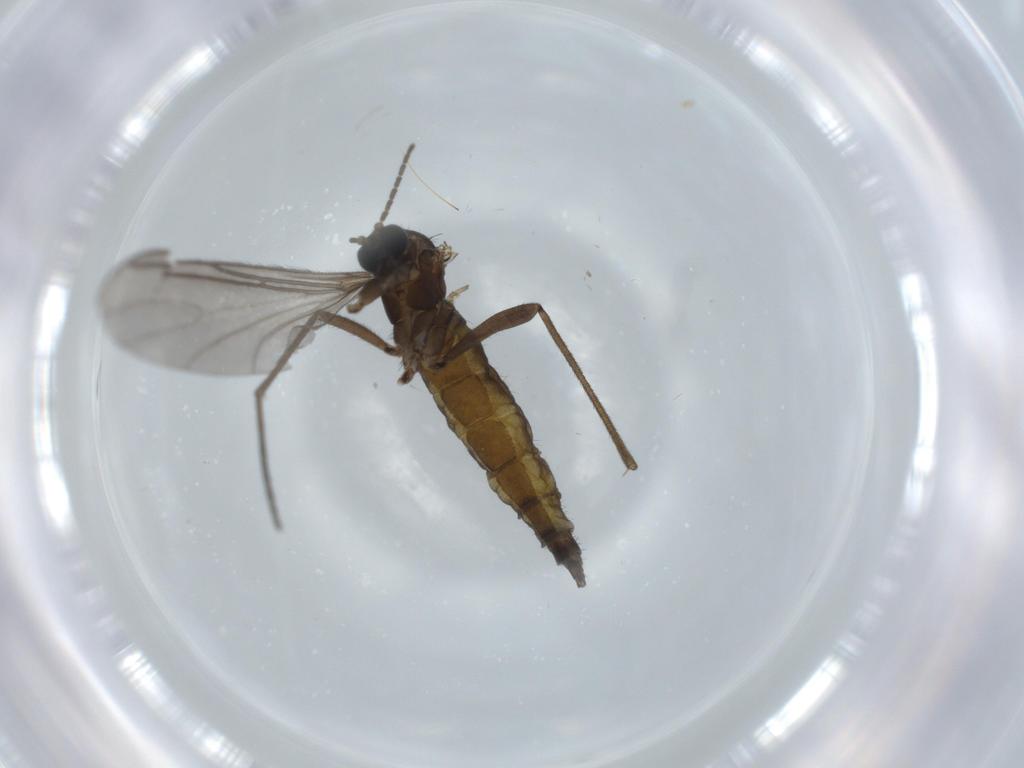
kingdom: Animalia
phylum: Arthropoda
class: Insecta
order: Diptera
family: Sciaridae
